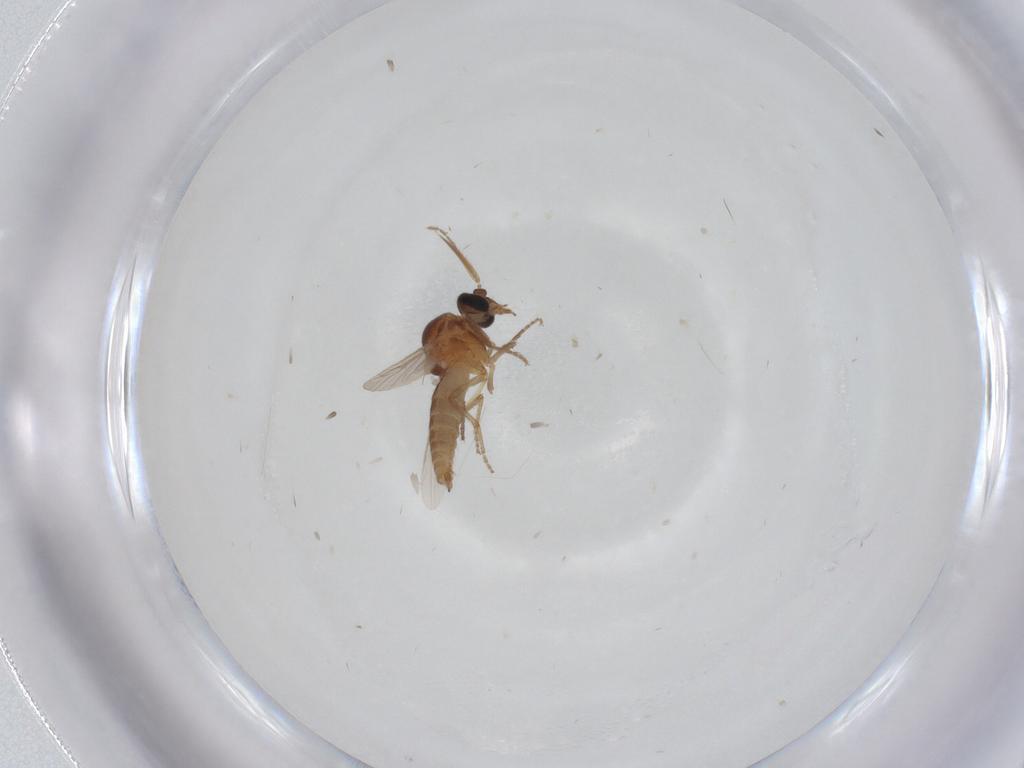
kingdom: Animalia
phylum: Arthropoda
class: Insecta
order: Diptera
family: Ceratopogonidae
